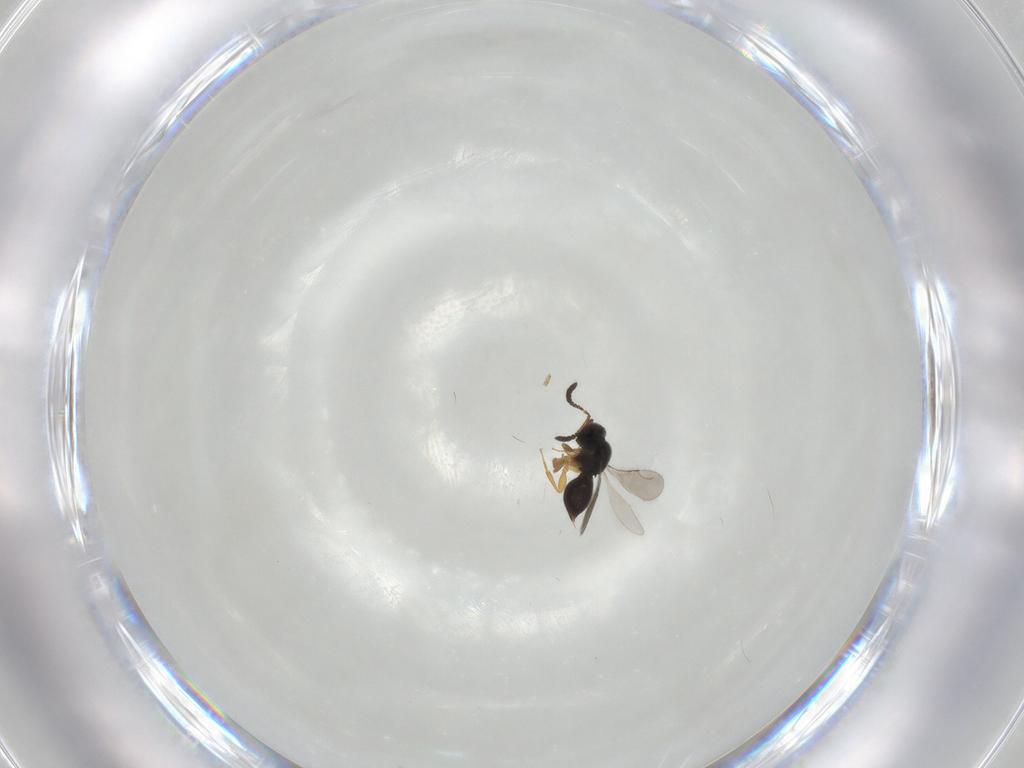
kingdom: Animalia
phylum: Arthropoda
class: Insecta
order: Hymenoptera
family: Ceraphronidae
